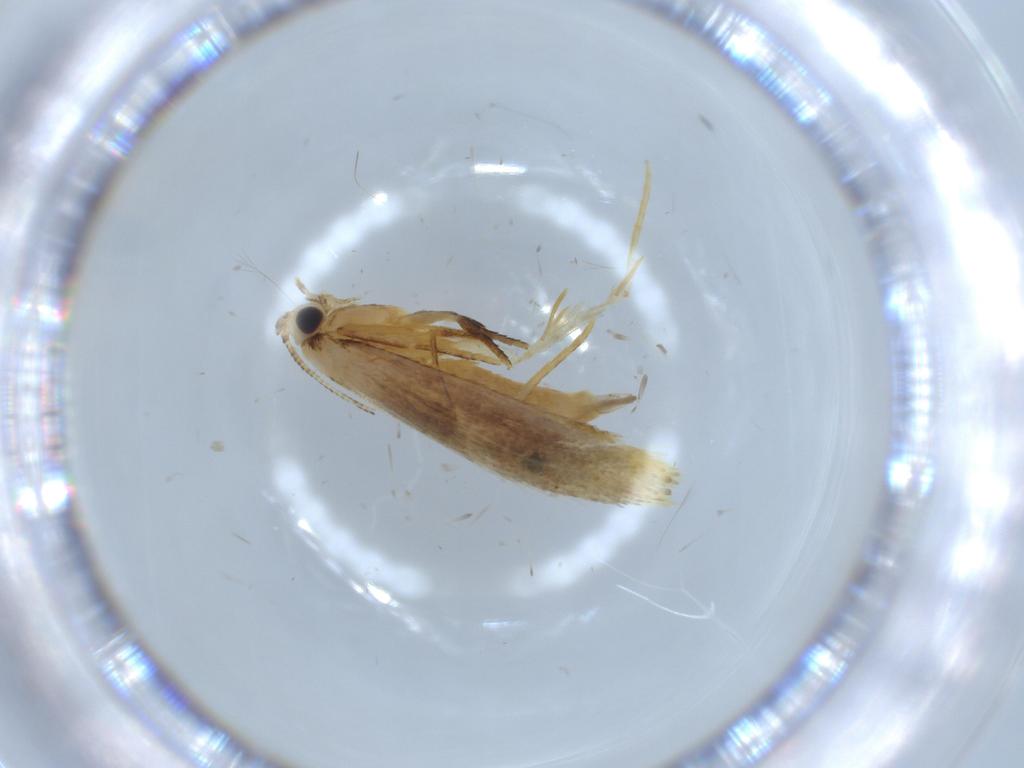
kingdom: Animalia
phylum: Arthropoda
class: Insecta
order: Lepidoptera
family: Tineidae
